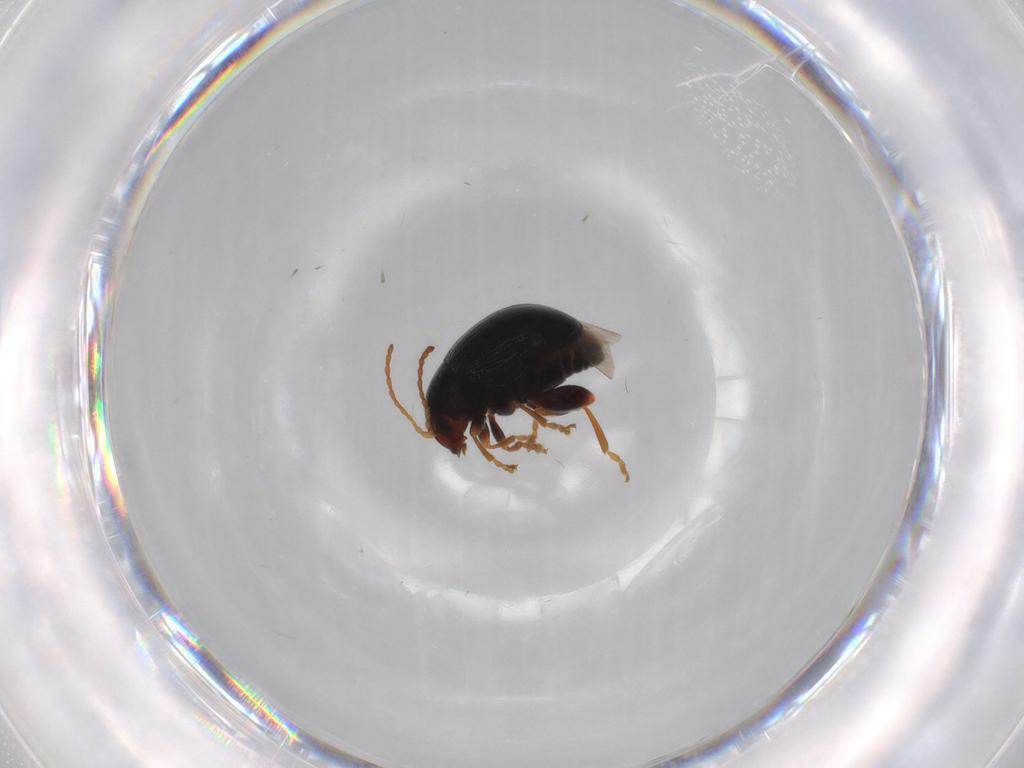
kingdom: Animalia
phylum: Arthropoda
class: Insecta
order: Coleoptera
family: Chrysomelidae
